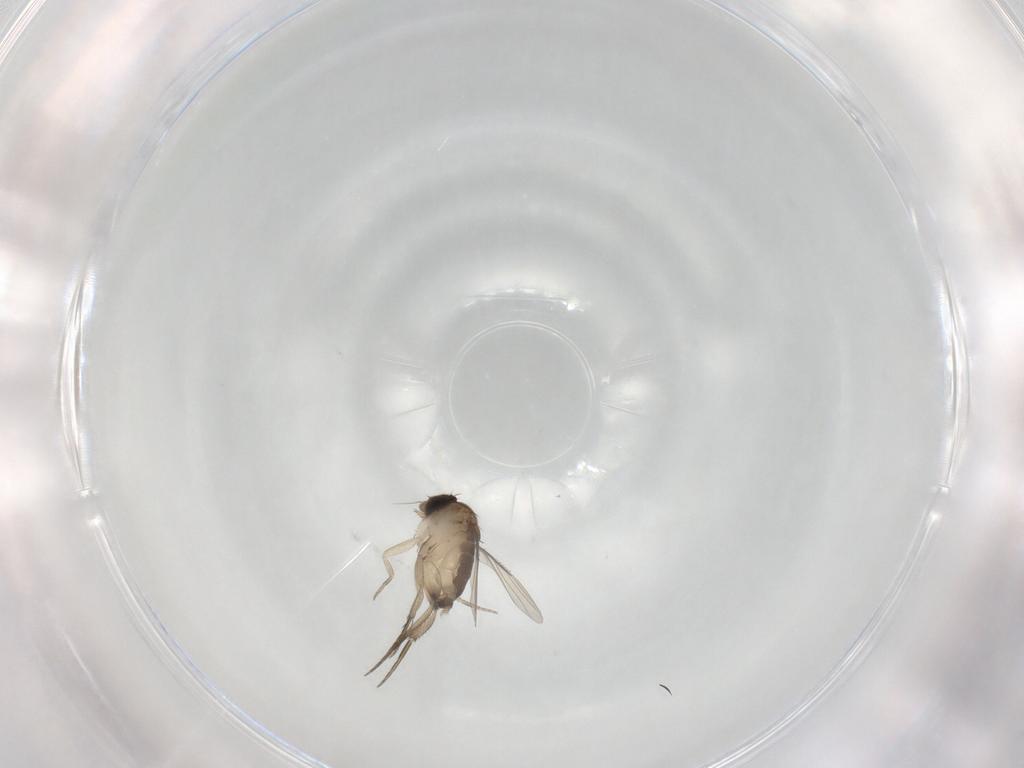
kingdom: Animalia
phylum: Arthropoda
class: Insecta
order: Diptera
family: Phoridae
